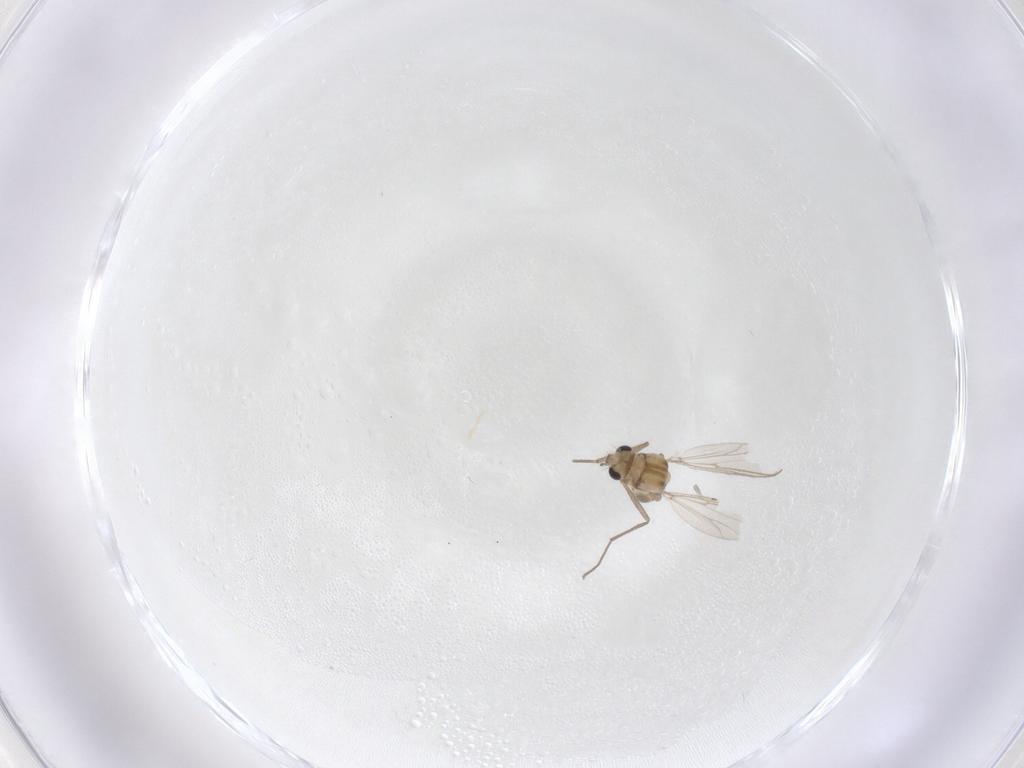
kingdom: Animalia
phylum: Arthropoda
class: Insecta
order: Diptera
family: Chironomidae
